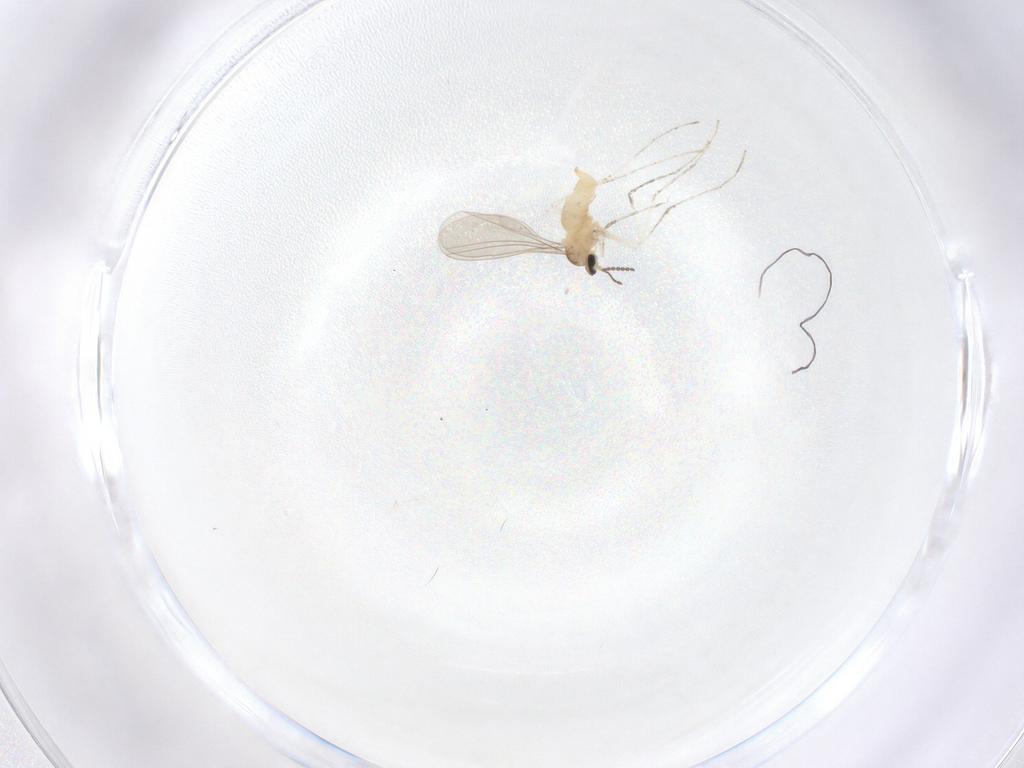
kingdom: Animalia
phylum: Arthropoda
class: Insecta
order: Diptera
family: Cecidomyiidae
